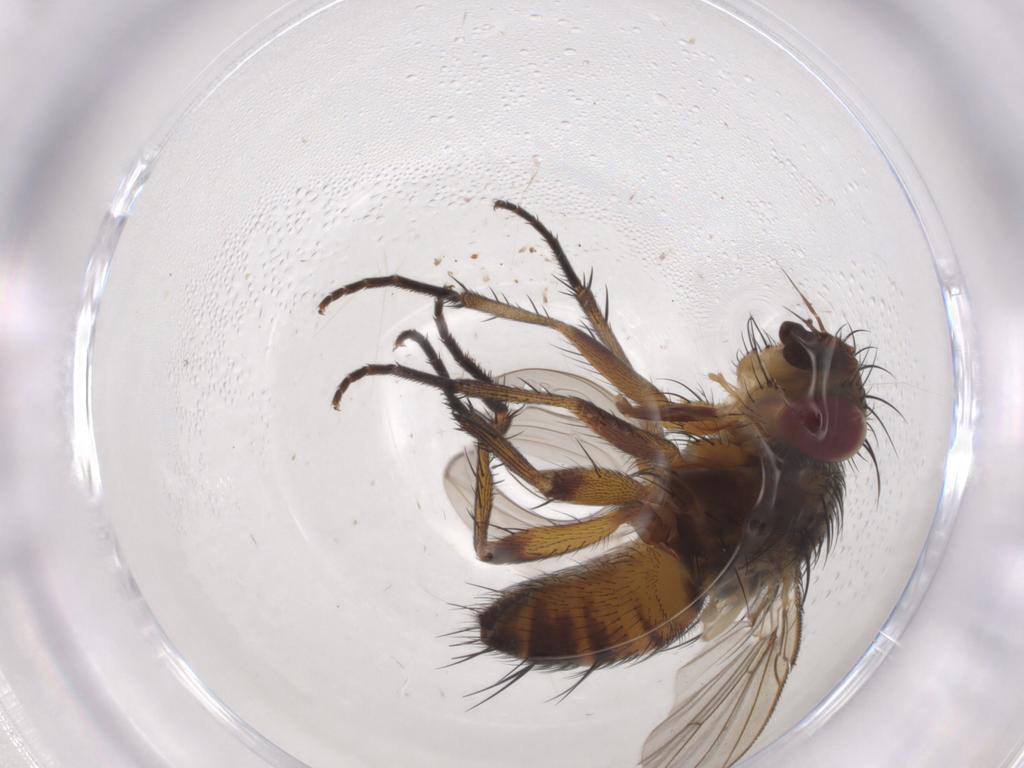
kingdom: Animalia
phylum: Arthropoda
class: Insecta
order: Diptera
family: Tachinidae
